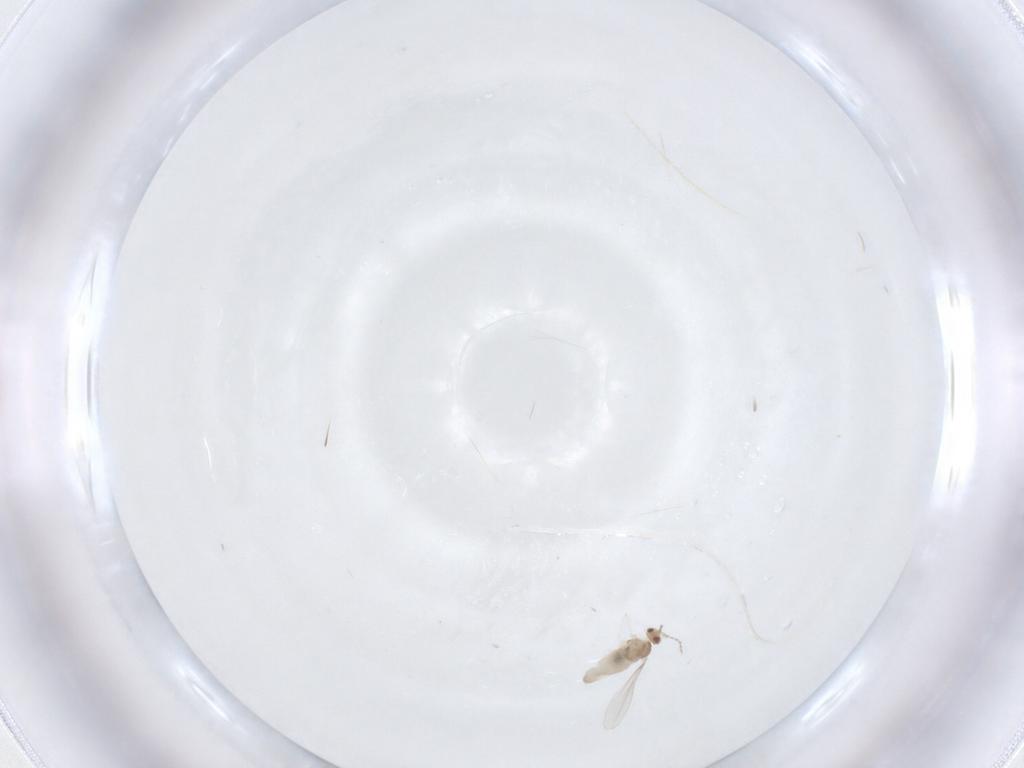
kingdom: Animalia
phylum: Arthropoda
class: Insecta
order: Diptera
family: Cecidomyiidae
